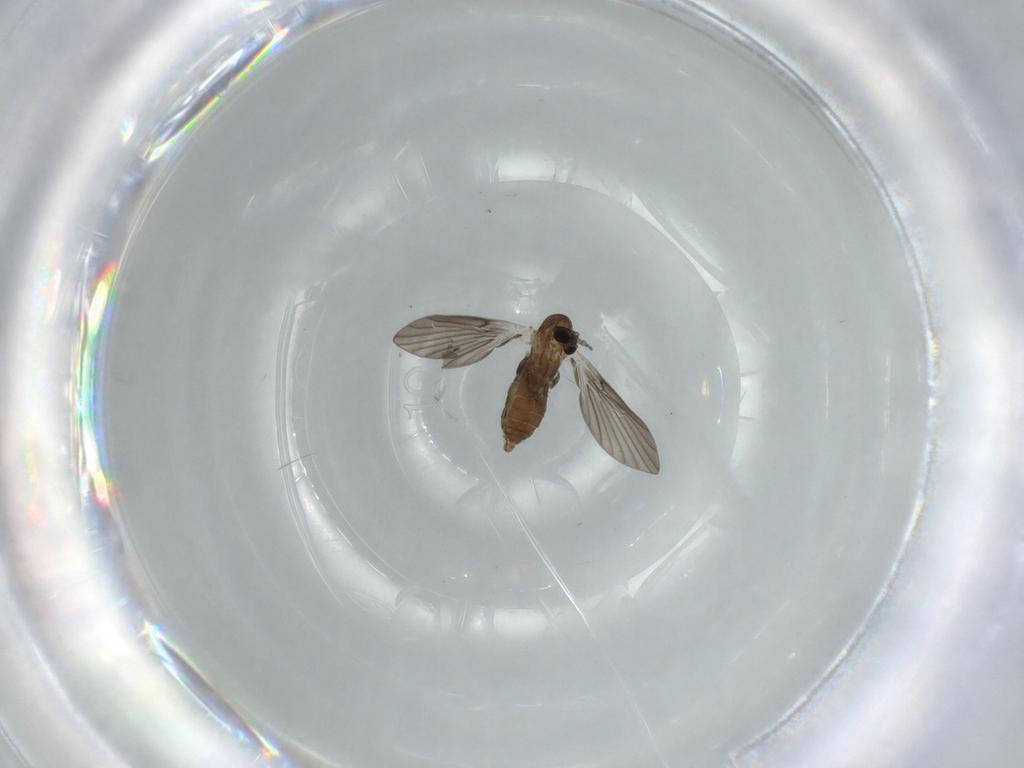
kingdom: Animalia
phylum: Arthropoda
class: Insecta
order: Diptera
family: Psychodidae
